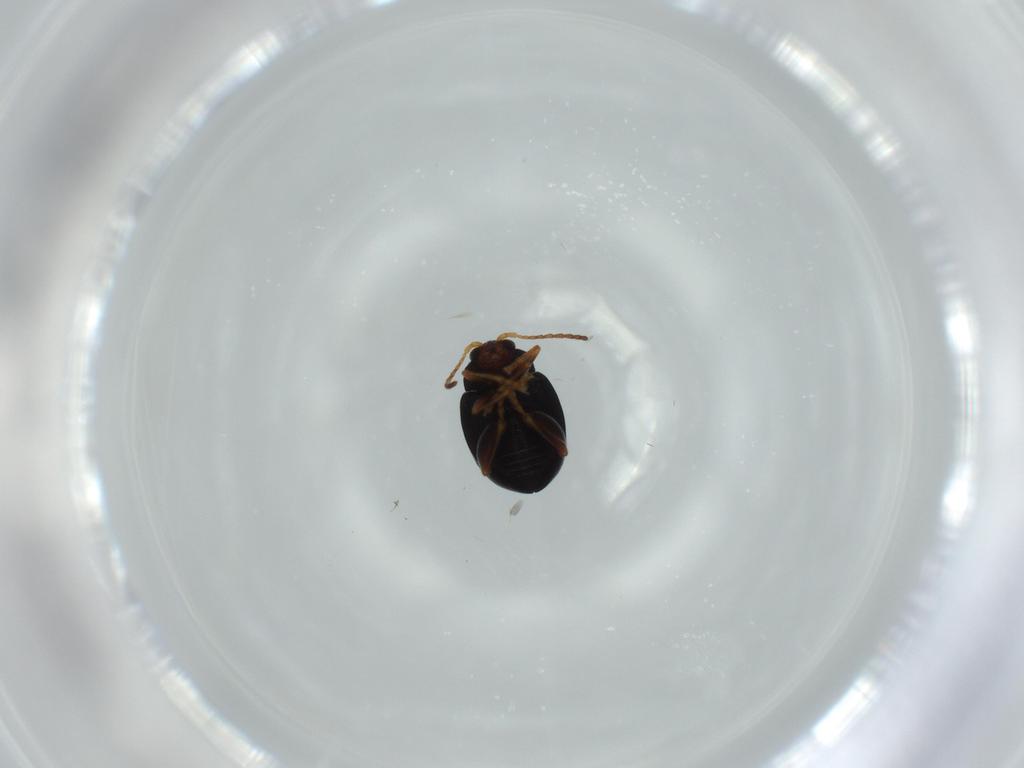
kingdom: Animalia
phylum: Arthropoda
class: Insecta
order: Coleoptera
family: Chrysomelidae
